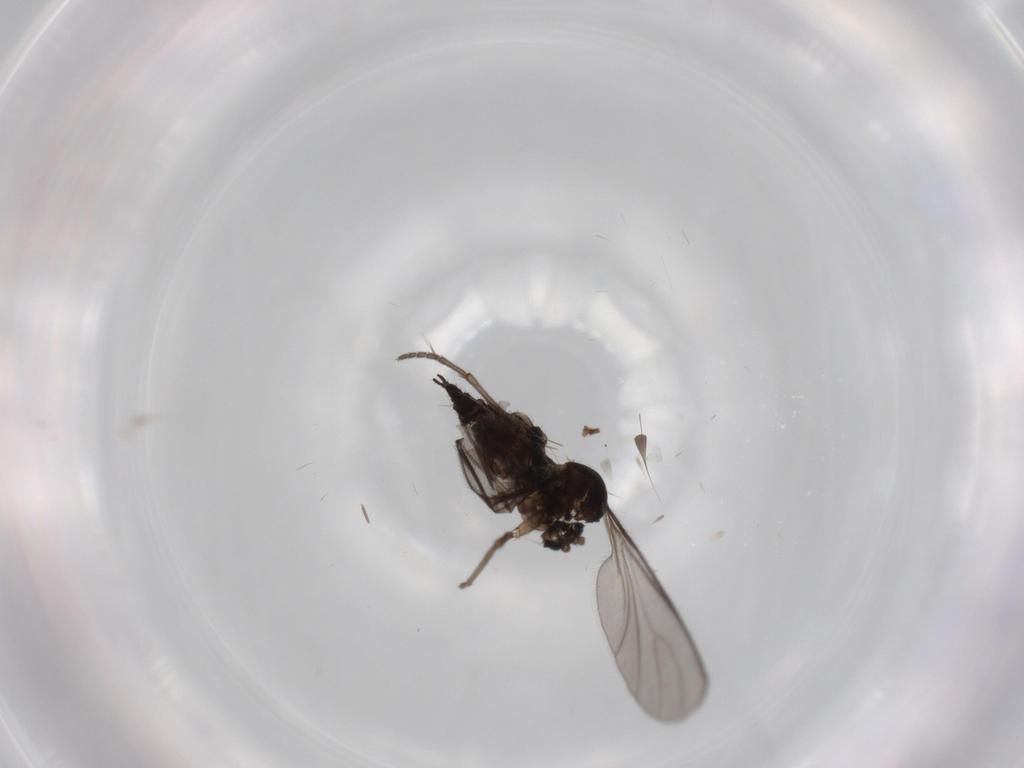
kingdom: Animalia
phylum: Arthropoda
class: Insecta
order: Diptera
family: Sciaridae
